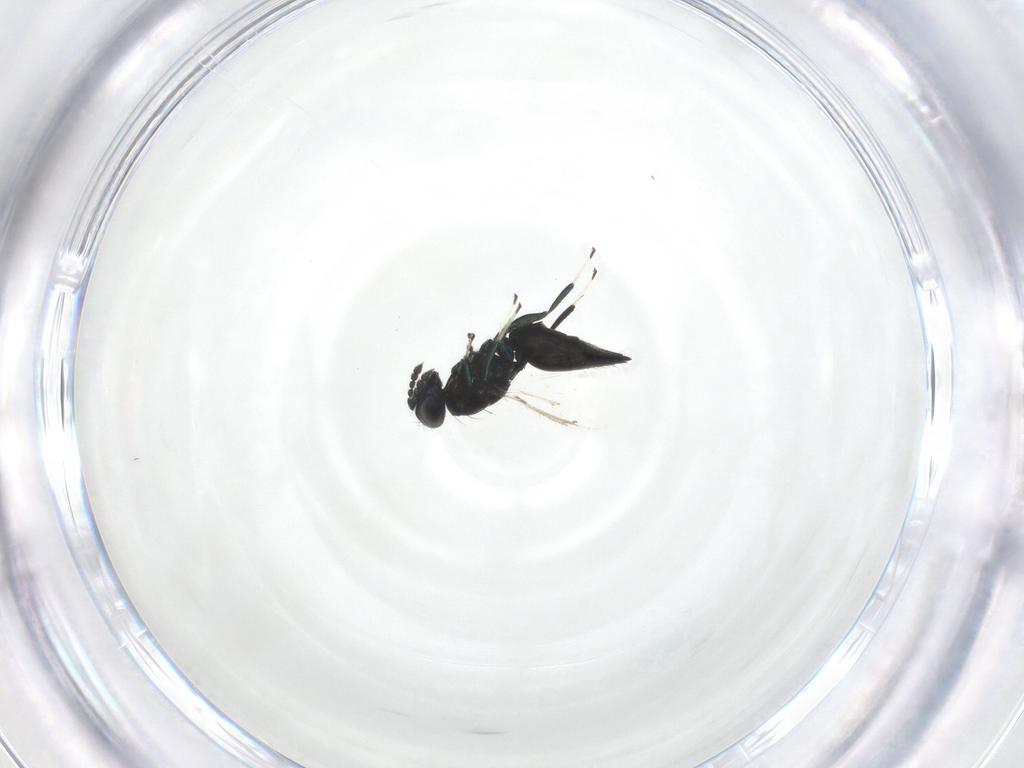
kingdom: Animalia
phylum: Arthropoda
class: Insecta
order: Hymenoptera
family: Eulophidae
